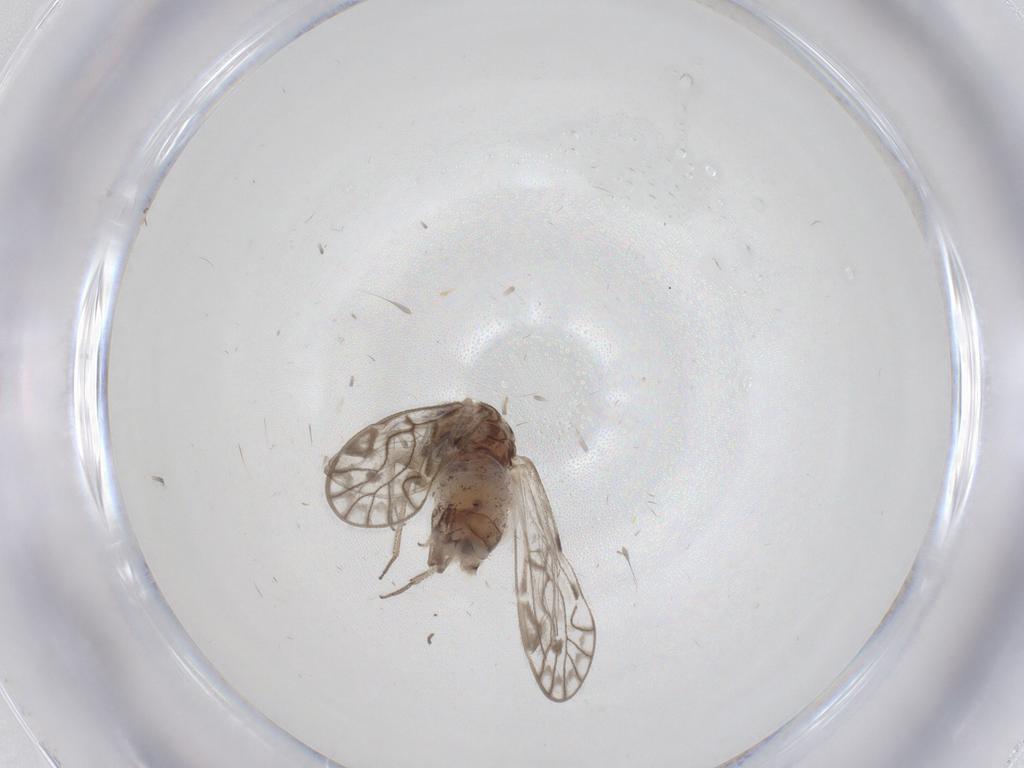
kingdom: Animalia
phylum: Arthropoda
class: Insecta
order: Psocodea
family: Psocidae
